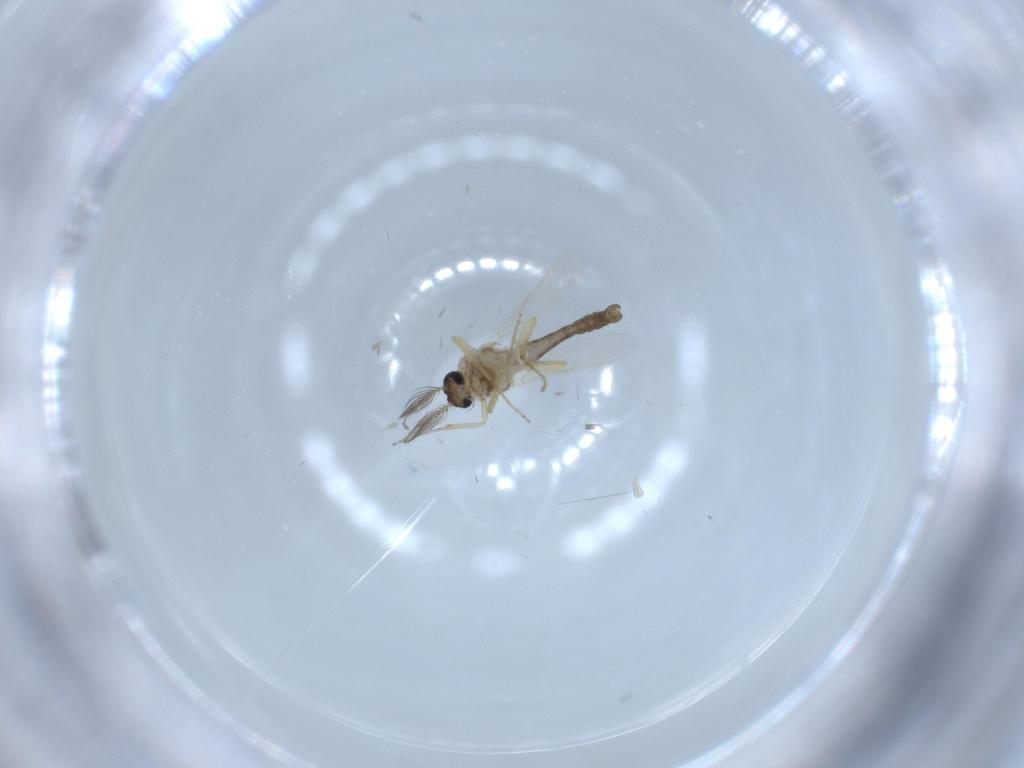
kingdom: Animalia
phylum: Arthropoda
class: Insecta
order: Diptera
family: Ceratopogonidae
